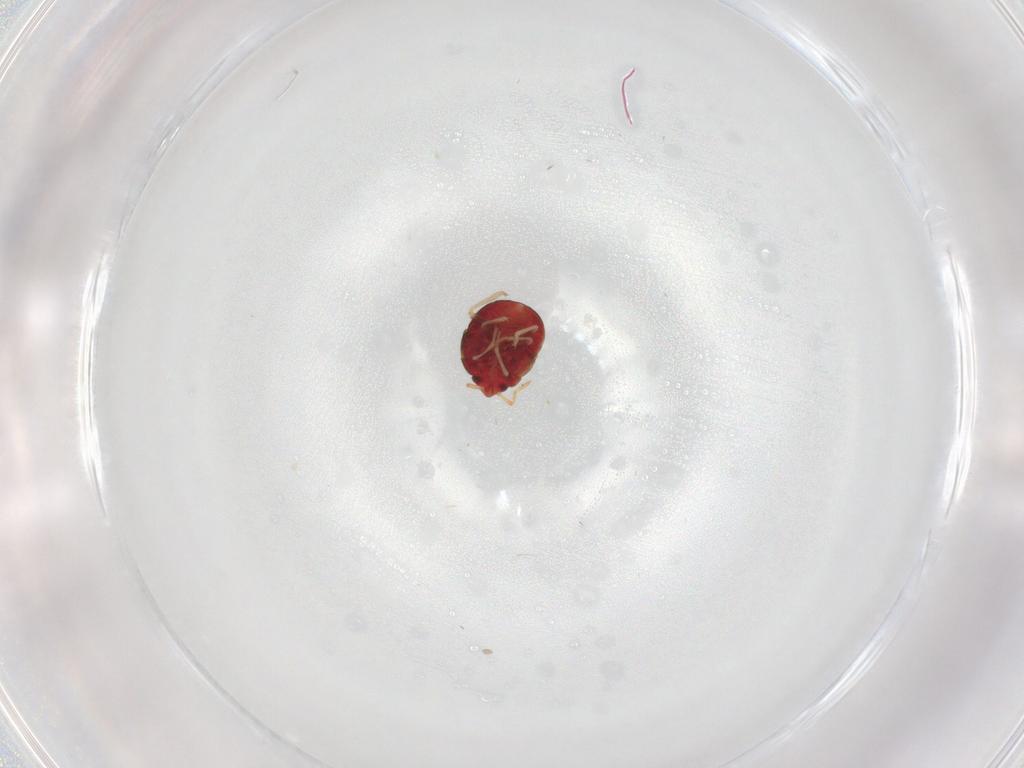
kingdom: Animalia
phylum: Arthropoda
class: Insecta
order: Hemiptera
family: Anthocoridae
